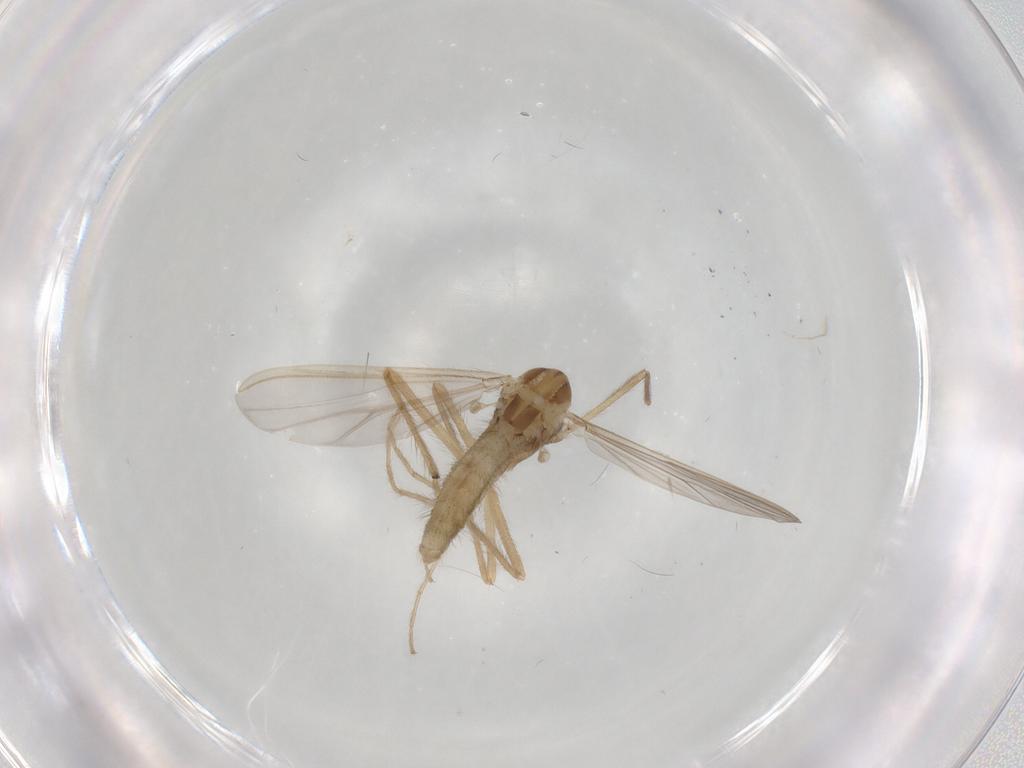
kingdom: Animalia
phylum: Arthropoda
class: Insecta
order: Diptera
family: Chironomidae
